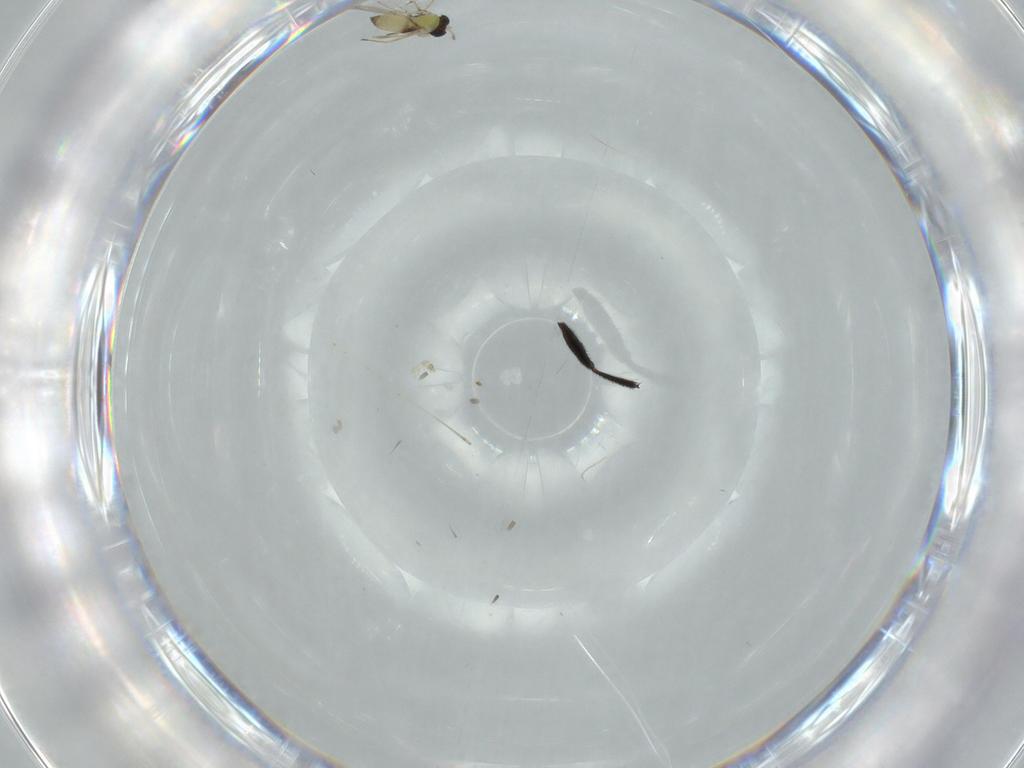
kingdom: Animalia
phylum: Arthropoda
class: Insecta
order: Diptera
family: Cecidomyiidae
